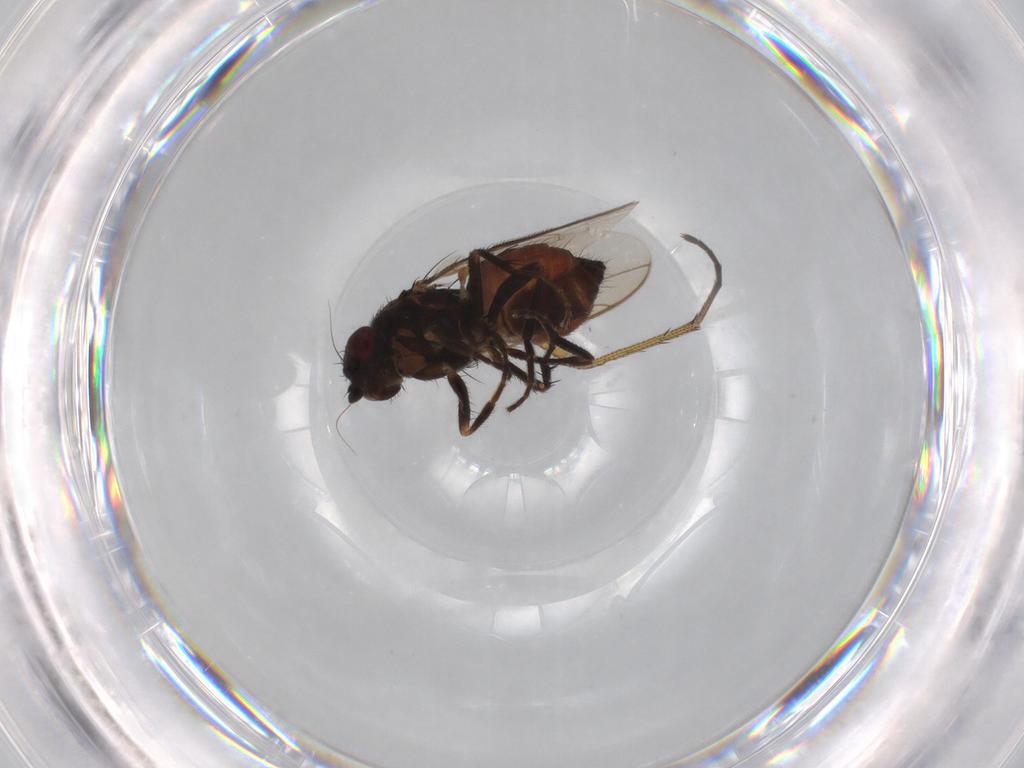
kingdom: Animalia
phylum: Arthropoda
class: Insecta
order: Diptera
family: Sphaeroceridae
